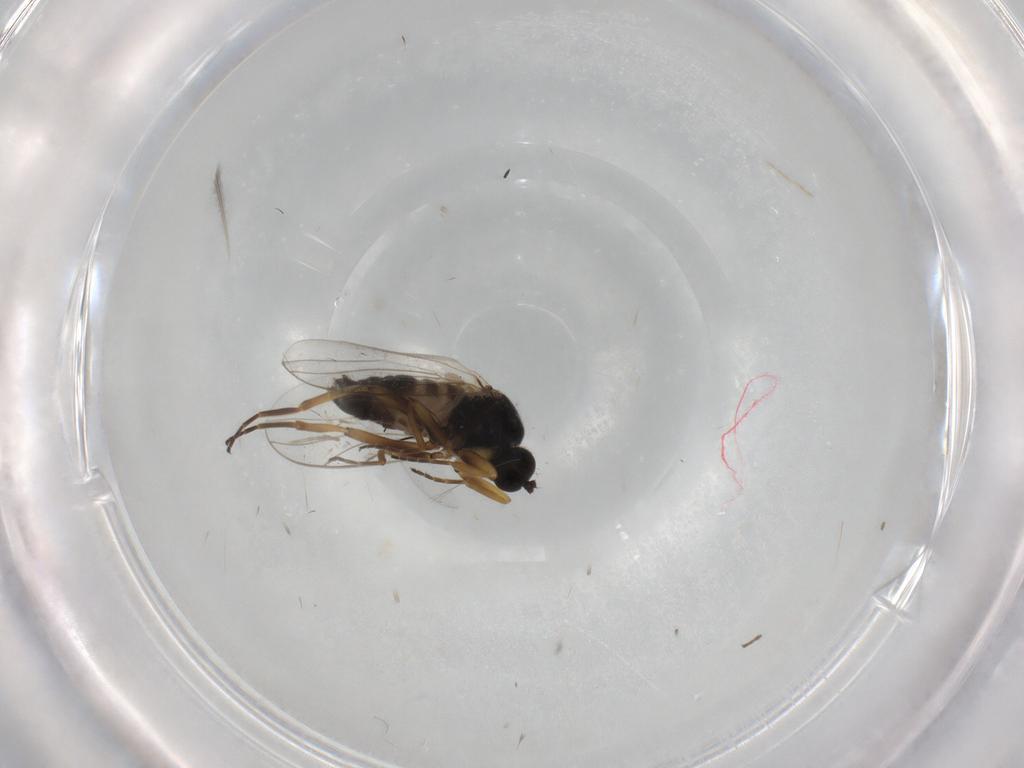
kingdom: Animalia
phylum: Arthropoda
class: Insecta
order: Diptera
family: Hybotidae
